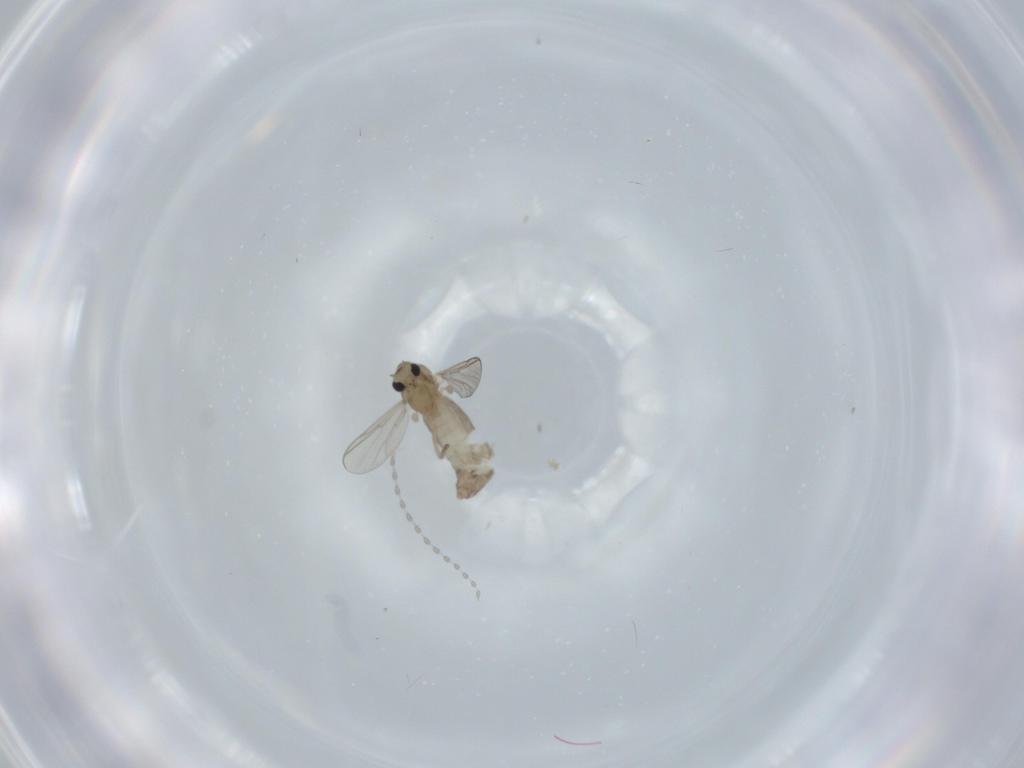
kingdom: Animalia
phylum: Arthropoda
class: Insecta
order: Diptera
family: Chironomidae
